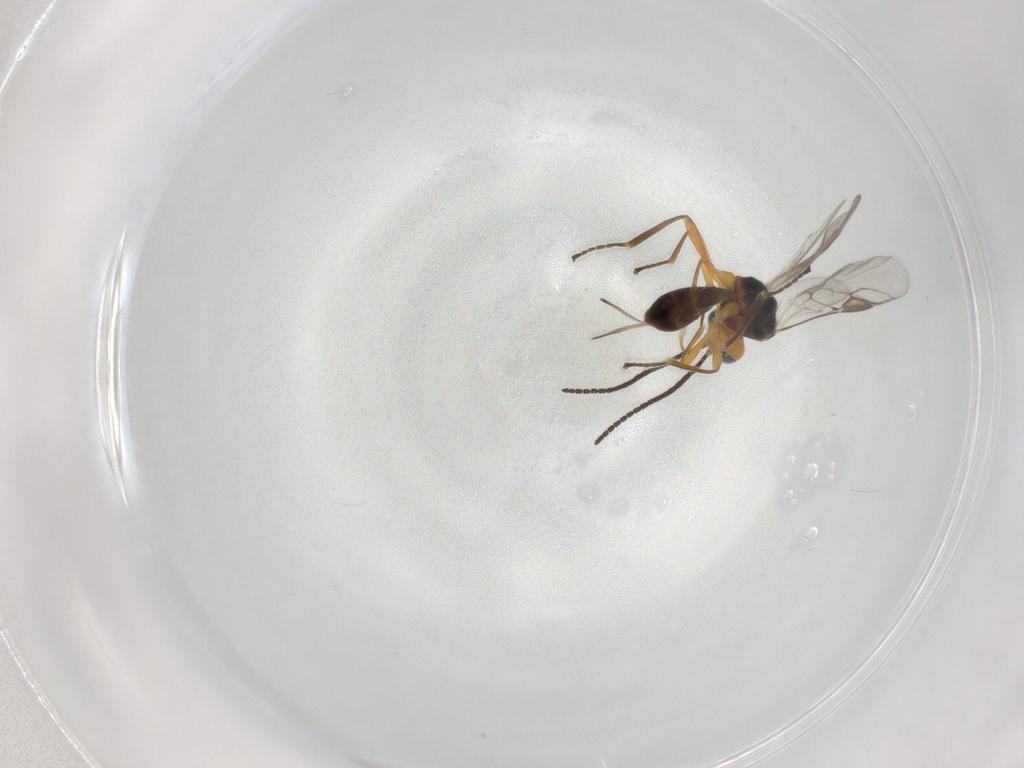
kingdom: Animalia
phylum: Arthropoda
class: Insecta
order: Hymenoptera
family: Braconidae
